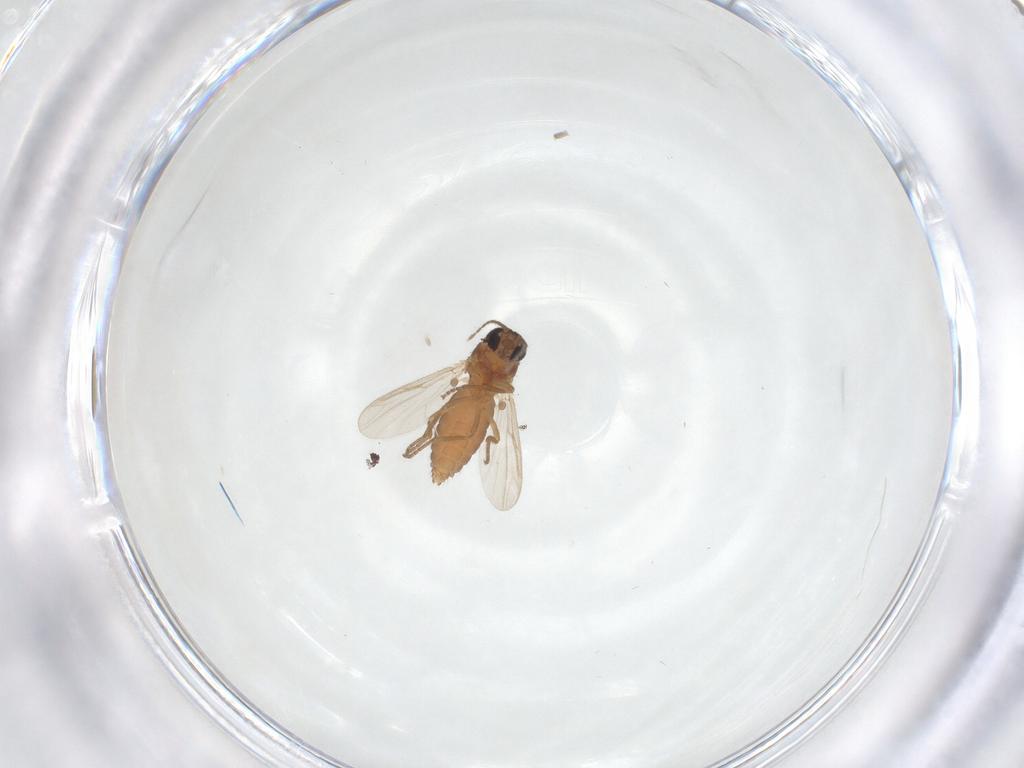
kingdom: Animalia
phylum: Arthropoda
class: Insecta
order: Diptera
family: Ceratopogonidae
